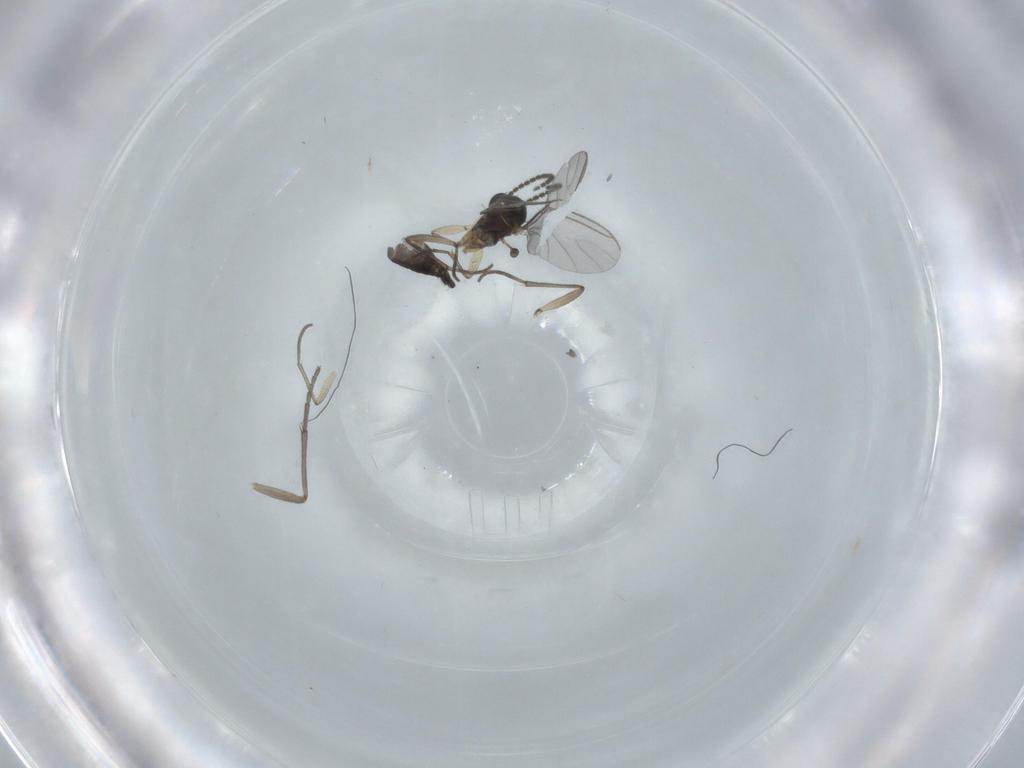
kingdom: Animalia
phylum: Arthropoda
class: Insecta
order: Diptera
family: Sciaridae
